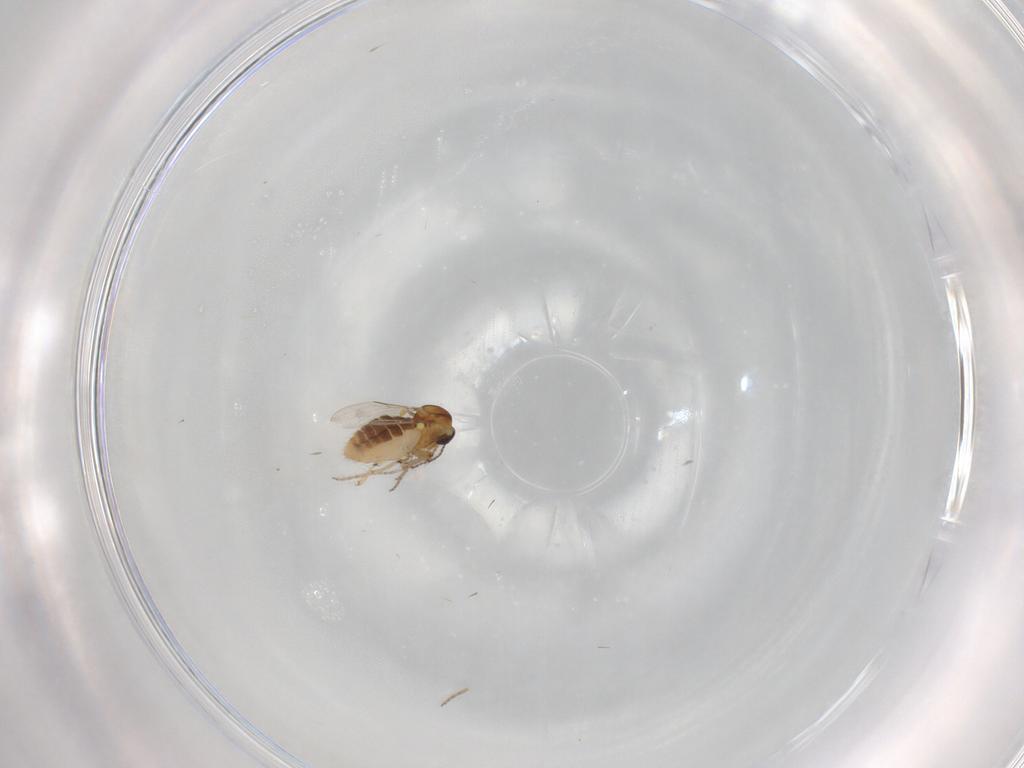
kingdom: Animalia
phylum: Arthropoda
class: Insecta
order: Diptera
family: Ceratopogonidae
